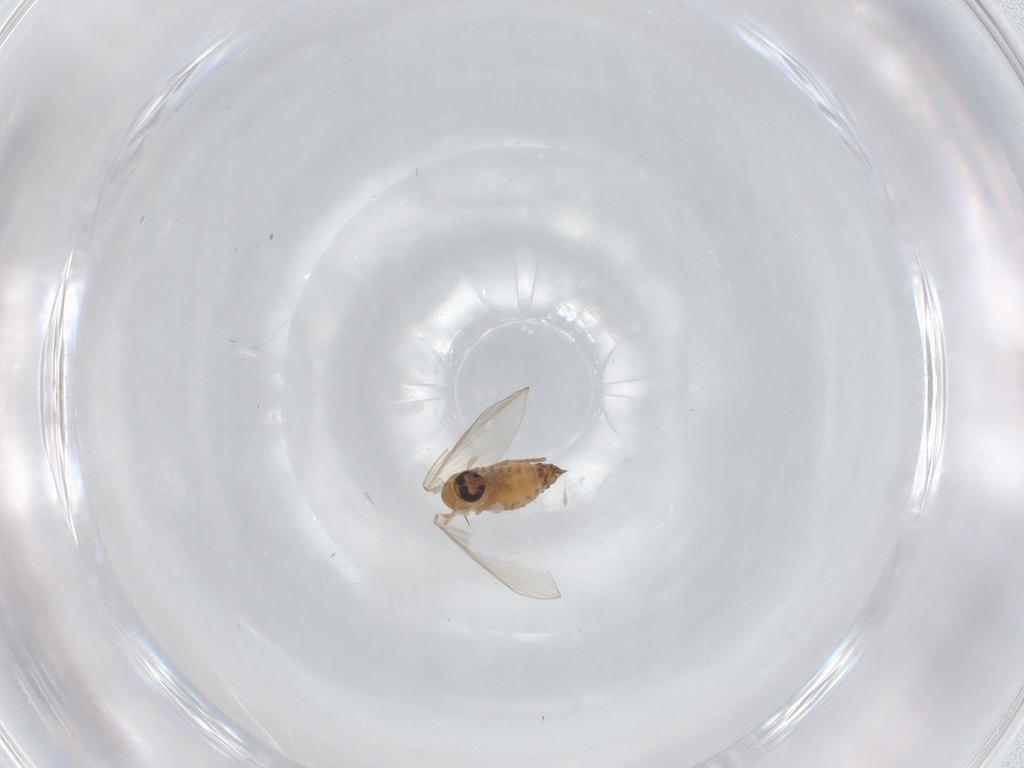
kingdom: Animalia
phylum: Arthropoda
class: Insecta
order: Diptera
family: Psychodidae
